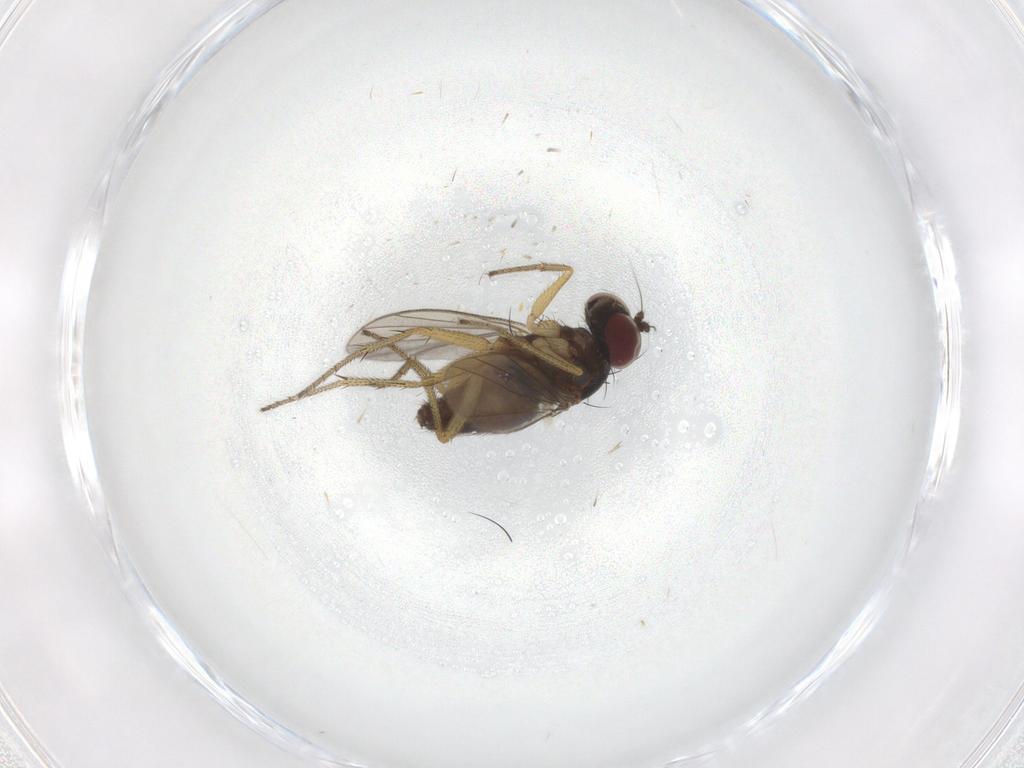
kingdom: Animalia
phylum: Arthropoda
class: Insecta
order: Diptera
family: Dolichopodidae
